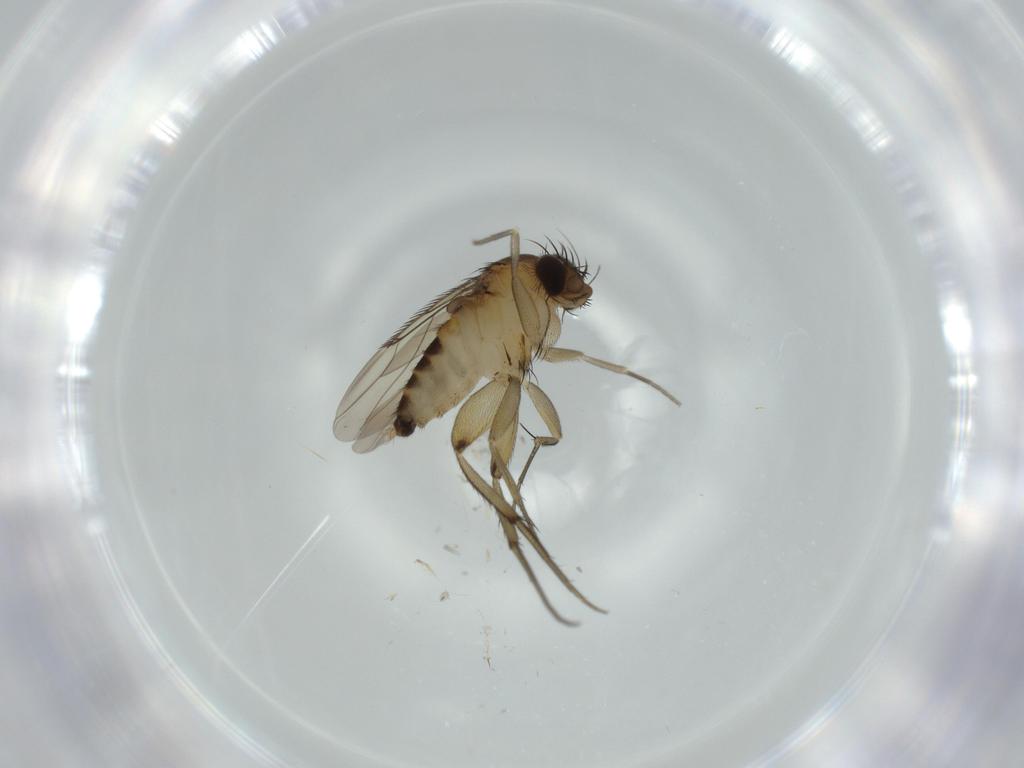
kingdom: Animalia
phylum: Arthropoda
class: Insecta
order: Diptera
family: Phoridae
